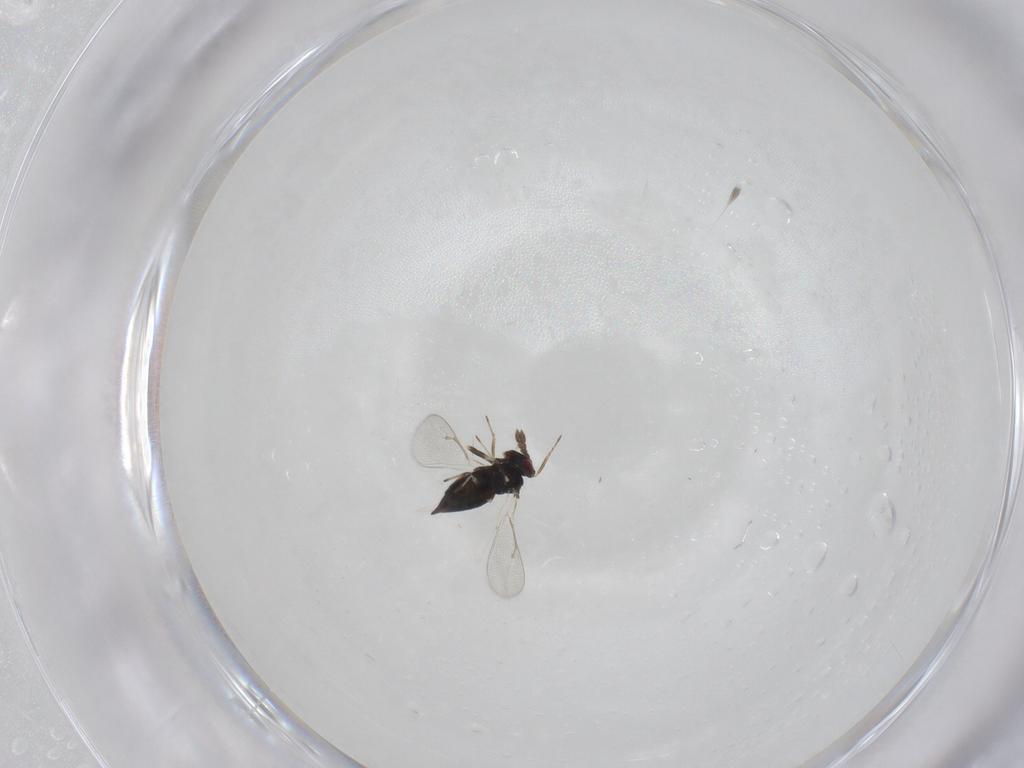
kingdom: Animalia
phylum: Arthropoda
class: Insecta
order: Hymenoptera
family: Eulophidae
